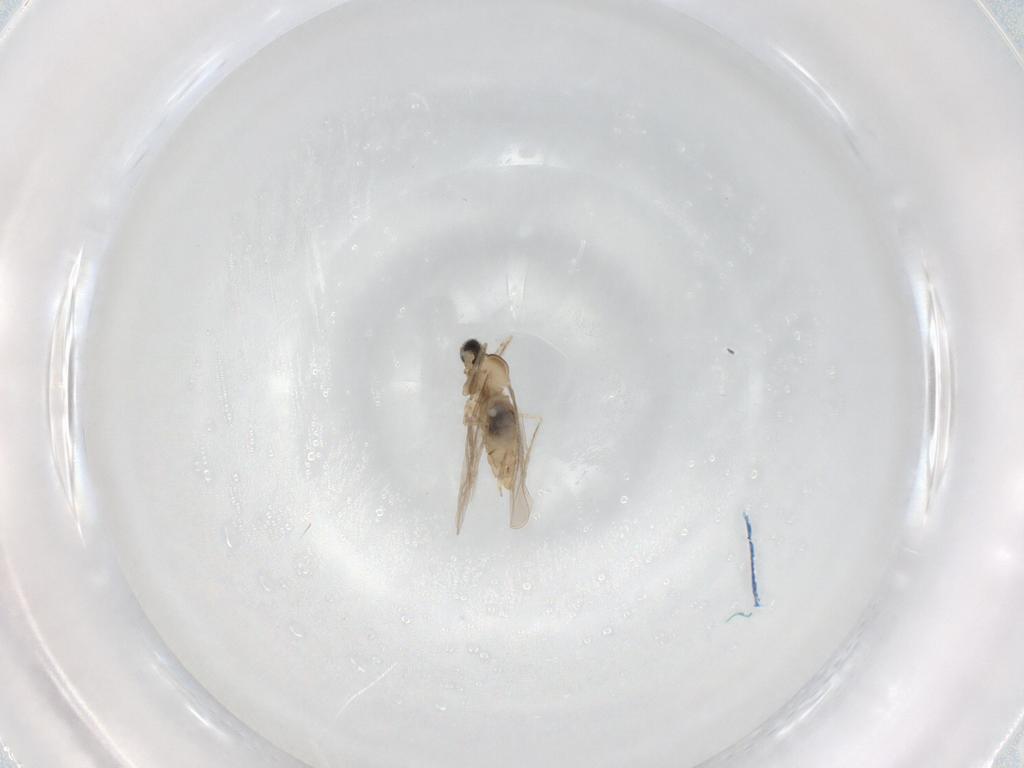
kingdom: Animalia
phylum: Arthropoda
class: Insecta
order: Diptera
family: Drosophilidae
